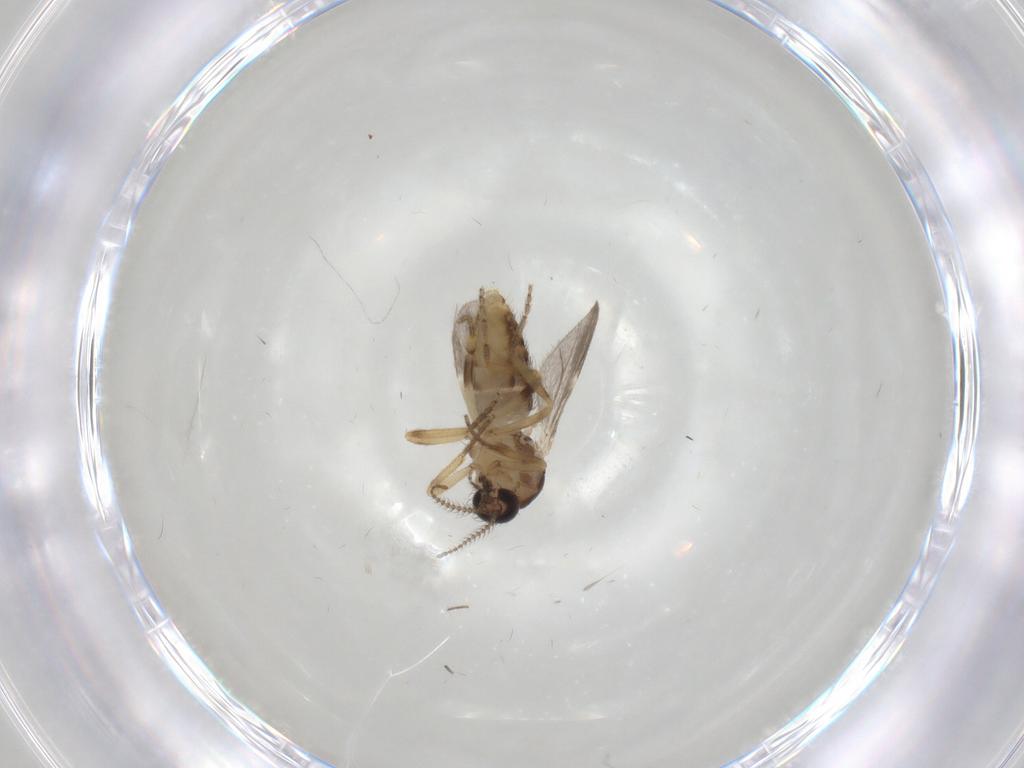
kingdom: Animalia
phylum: Arthropoda
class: Insecta
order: Diptera
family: Ceratopogonidae
